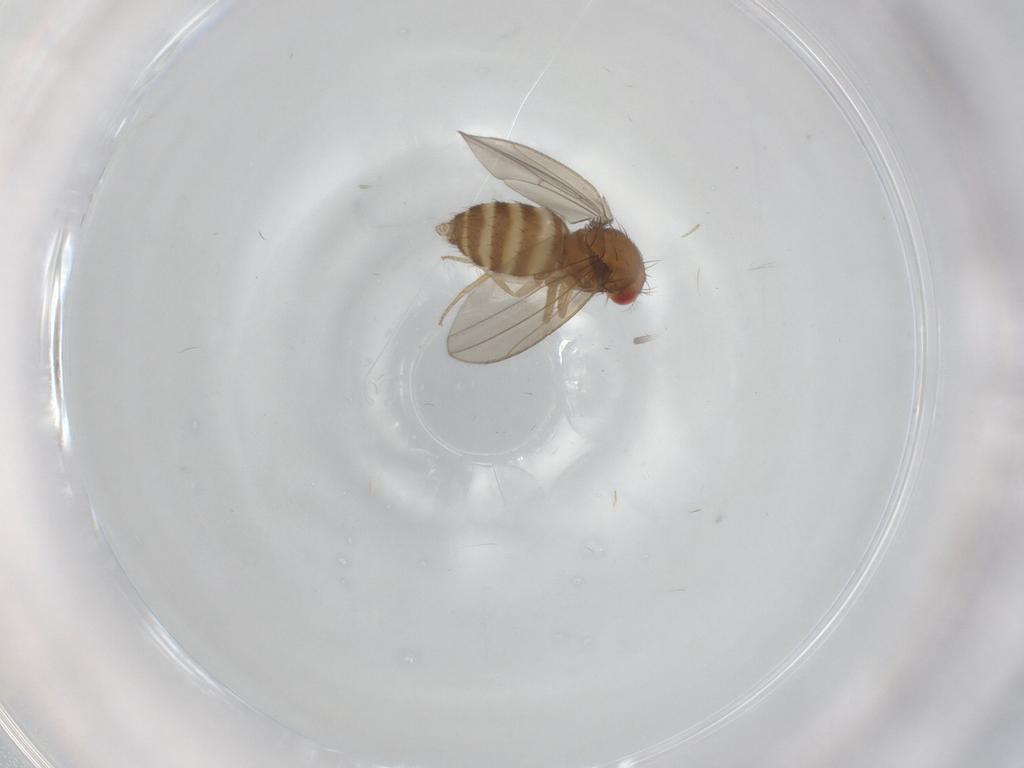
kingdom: Animalia
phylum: Arthropoda
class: Insecta
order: Diptera
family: Drosophilidae
